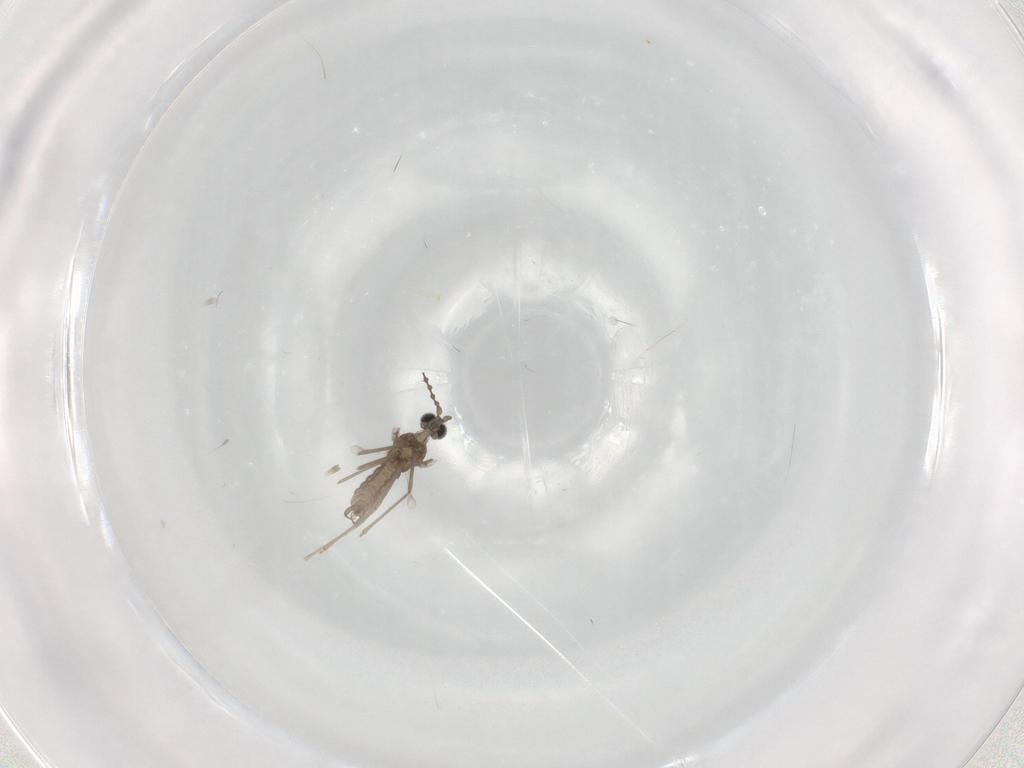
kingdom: Animalia
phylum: Arthropoda
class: Insecta
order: Diptera
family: Cecidomyiidae
